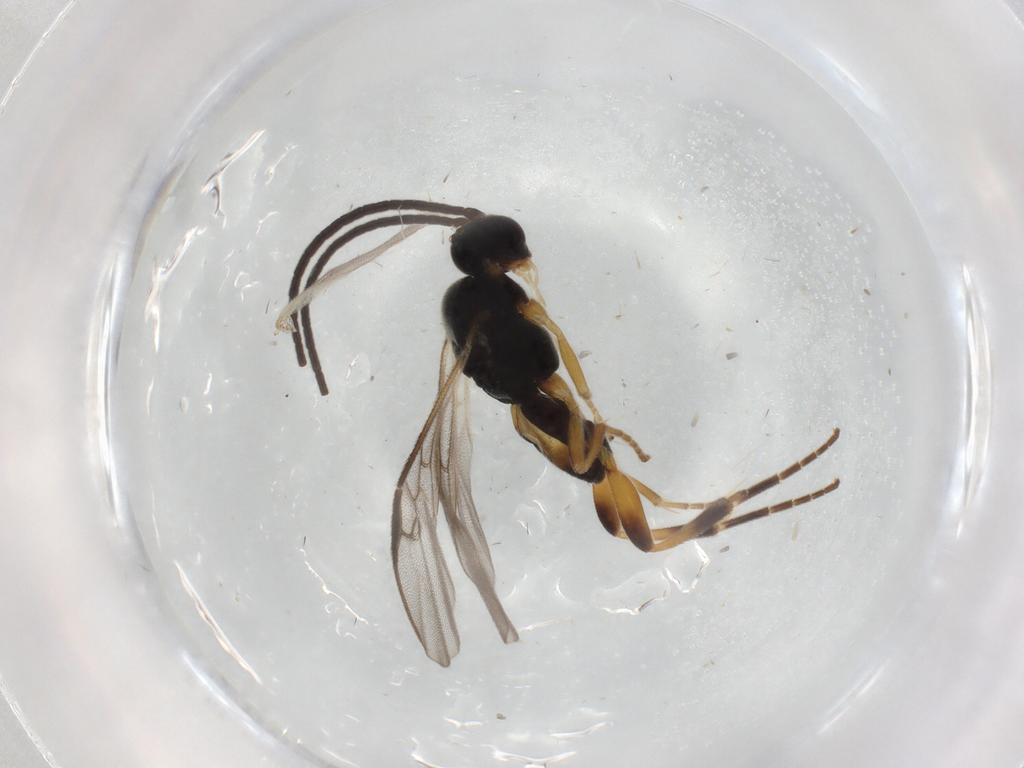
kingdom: Animalia
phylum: Arthropoda
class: Insecta
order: Hymenoptera
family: Braconidae
